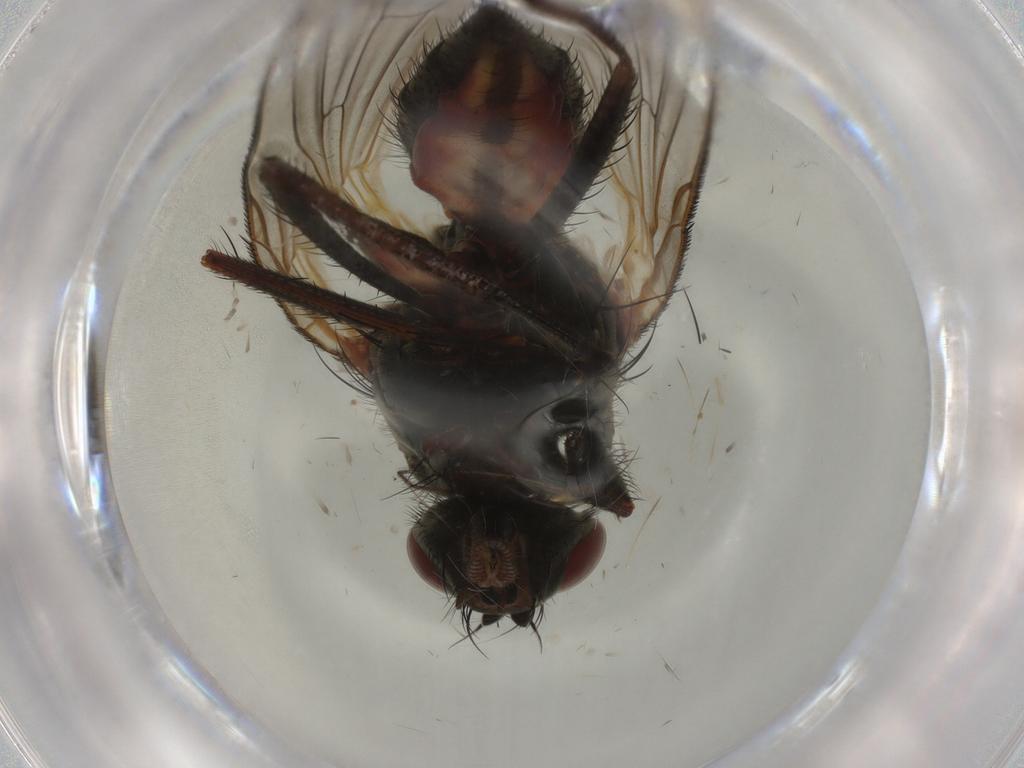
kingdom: Animalia
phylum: Arthropoda
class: Insecta
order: Diptera
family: Anthomyiidae
